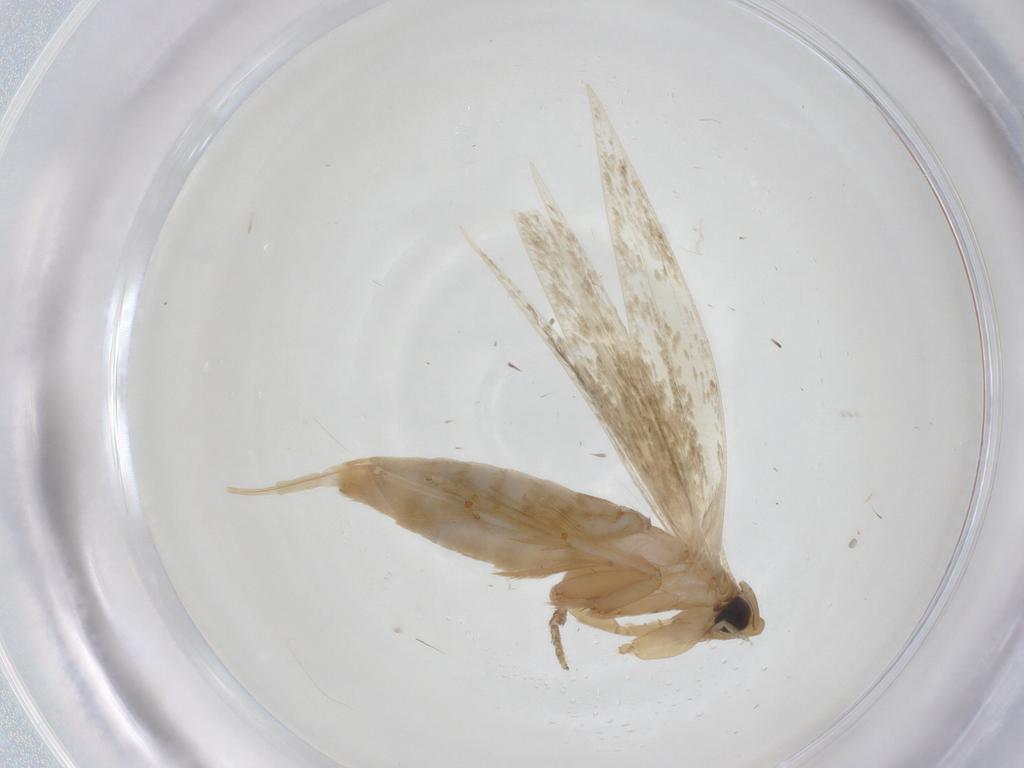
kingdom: Animalia
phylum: Arthropoda
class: Insecta
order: Lepidoptera
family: Tineidae
